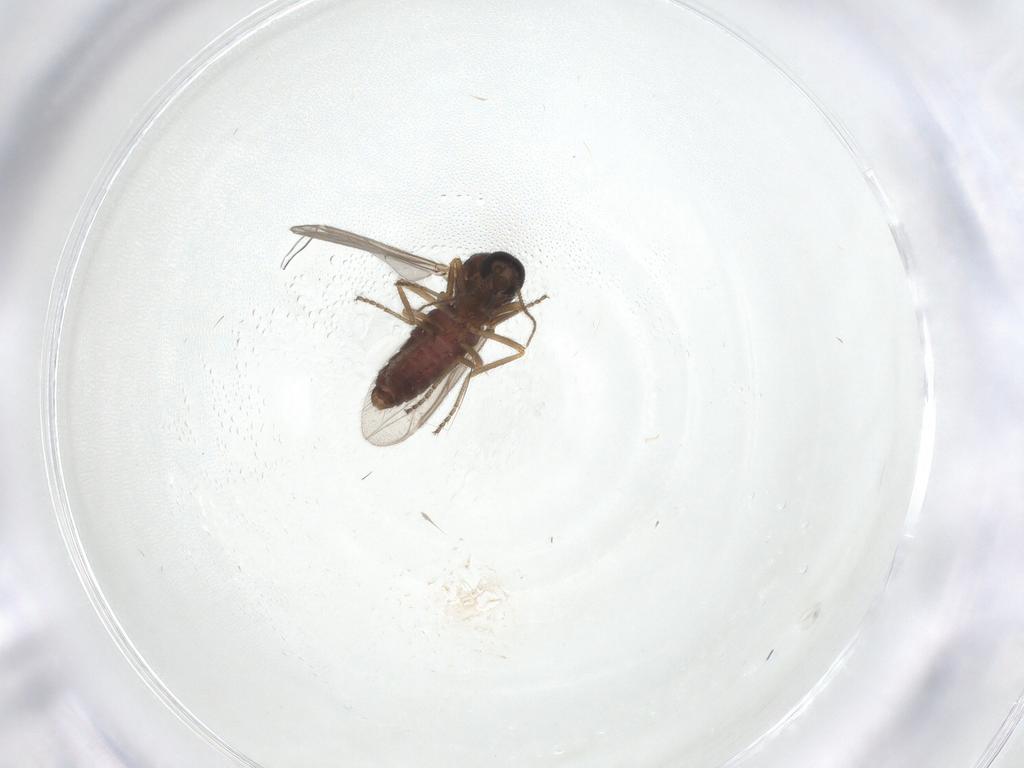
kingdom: Animalia
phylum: Arthropoda
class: Insecta
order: Diptera
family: Ceratopogonidae
